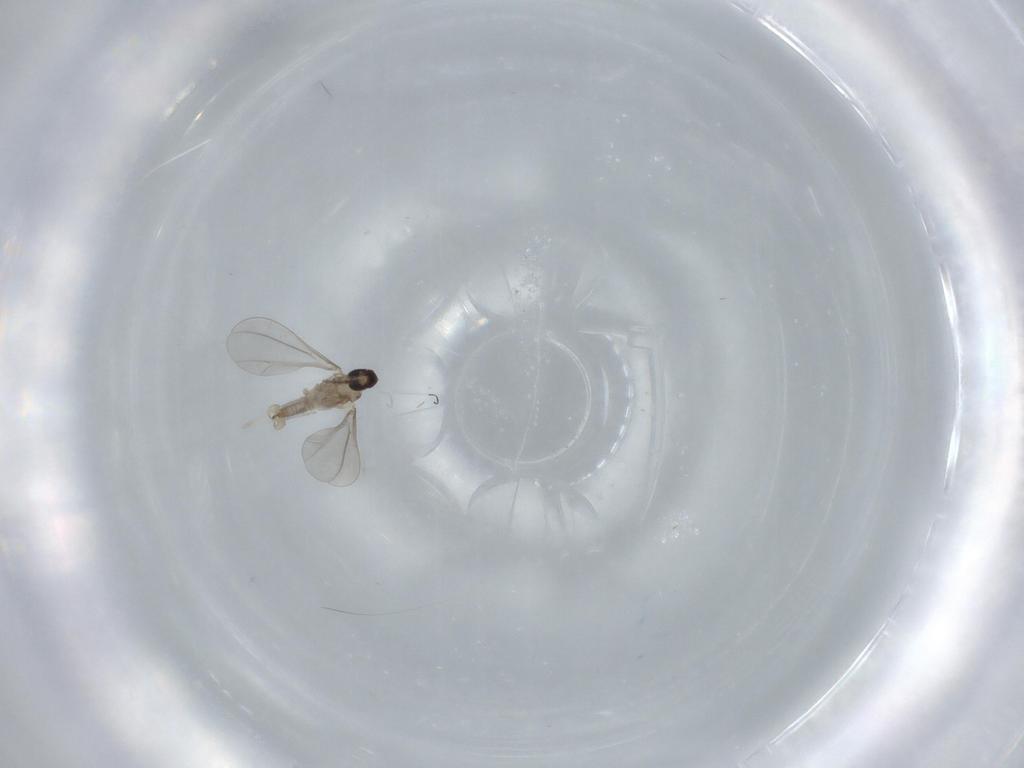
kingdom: Animalia
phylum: Arthropoda
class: Insecta
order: Diptera
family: Cecidomyiidae
